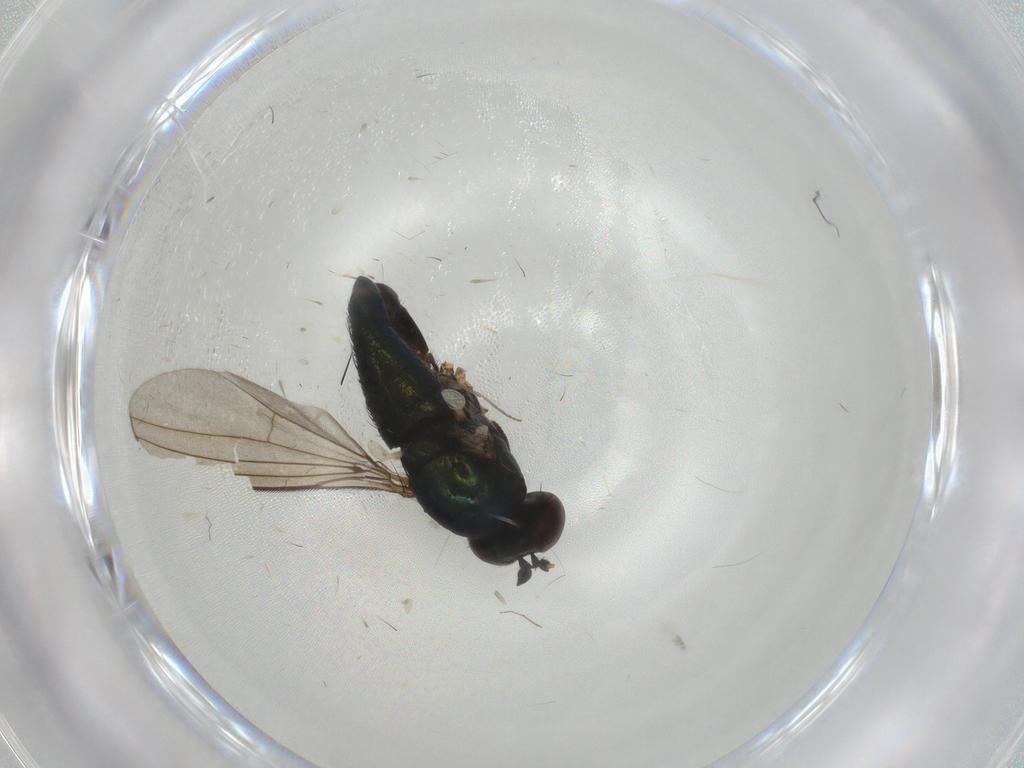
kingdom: Animalia
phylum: Arthropoda
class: Insecta
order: Diptera
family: Dolichopodidae
